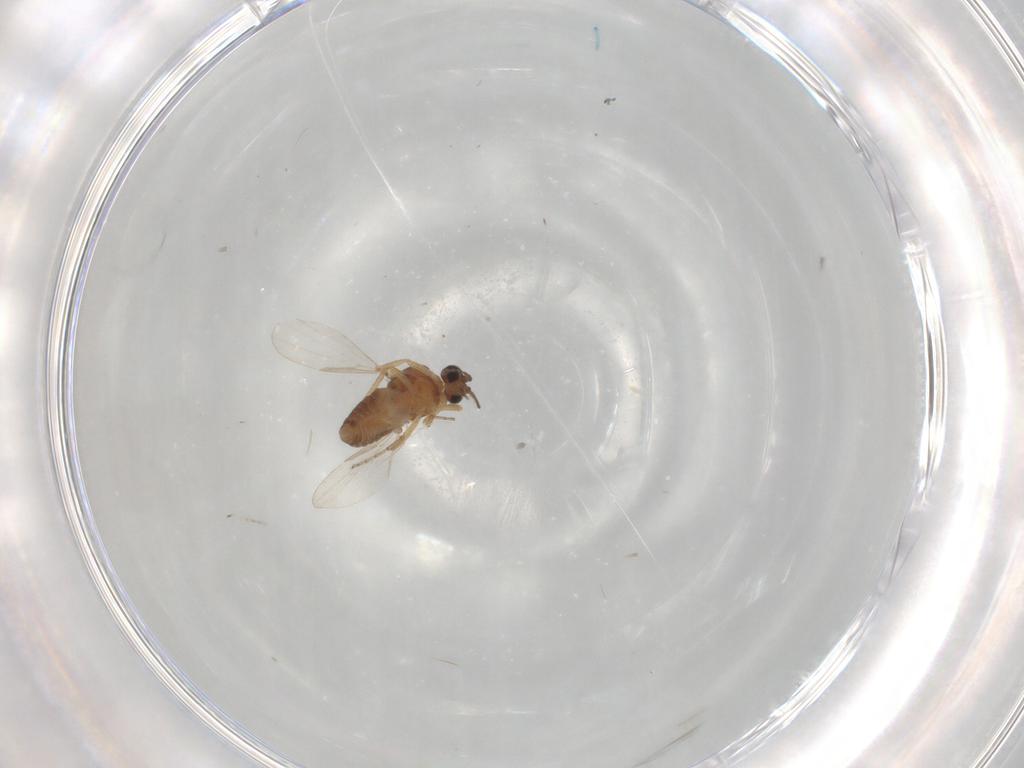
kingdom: Animalia
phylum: Arthropoda
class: Insecta
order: Diptera
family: Ceratopogonidae
